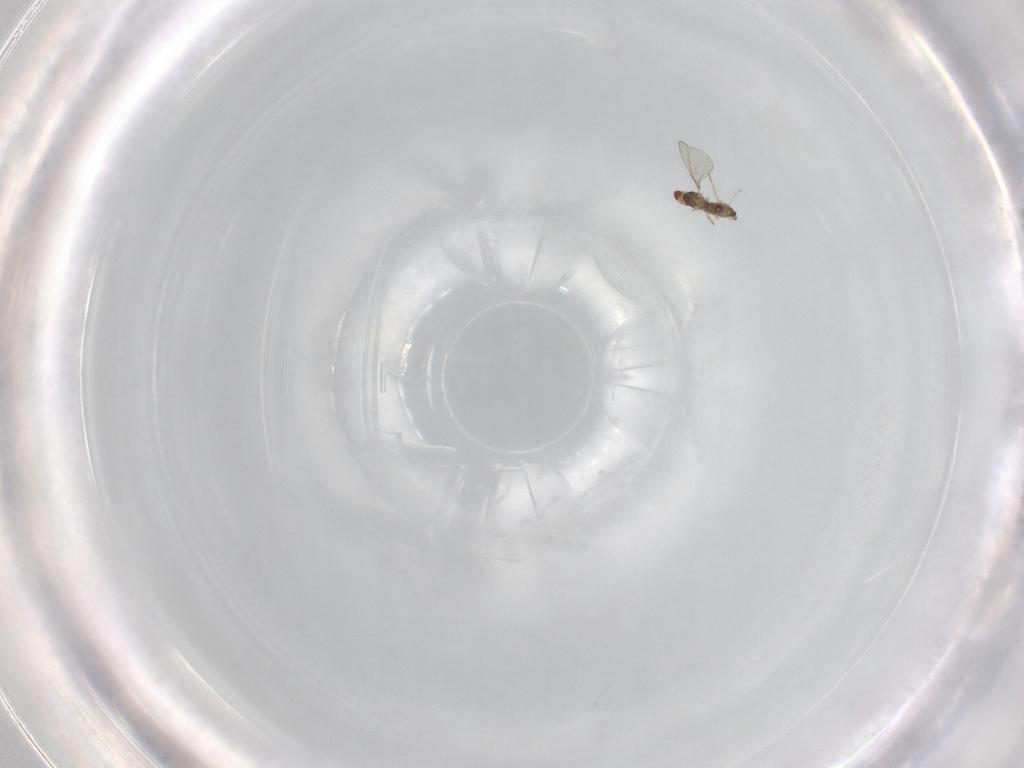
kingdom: Animalia
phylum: Arthropoda
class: Insecta
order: Diptera
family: Cecidomyiidae
